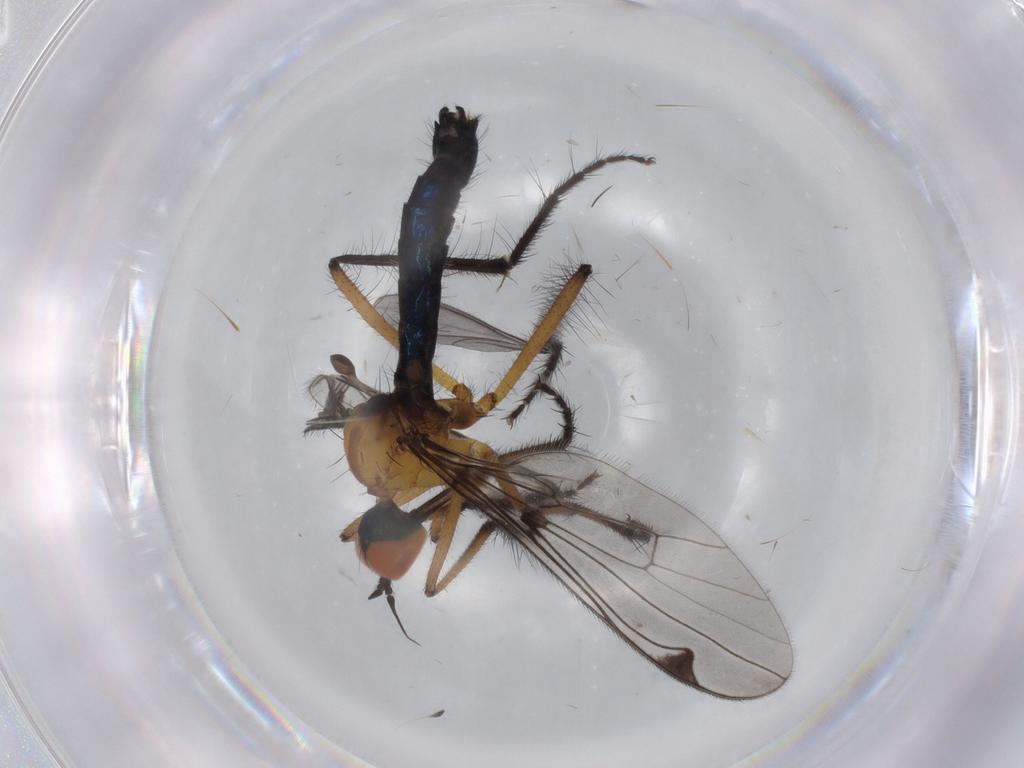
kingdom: Animalia
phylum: Arthropoda
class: Insecta
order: Diptera
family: Empididae
